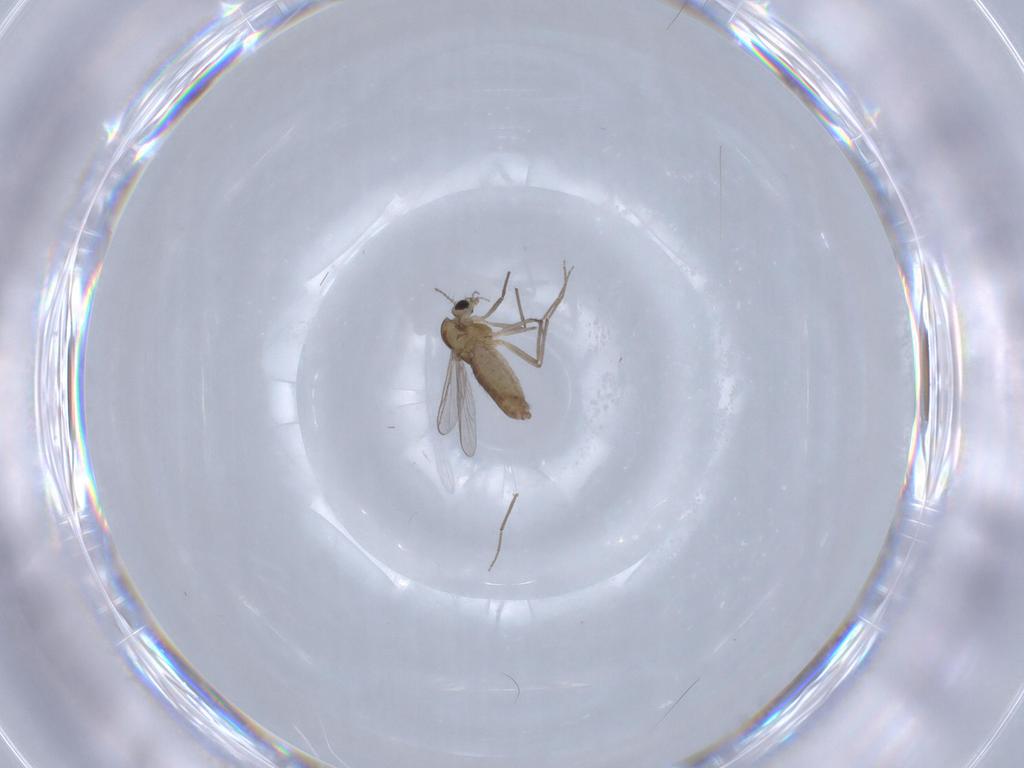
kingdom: Animalia
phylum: Arthropoda
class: Insecta
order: Diptera
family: Chironomidae
